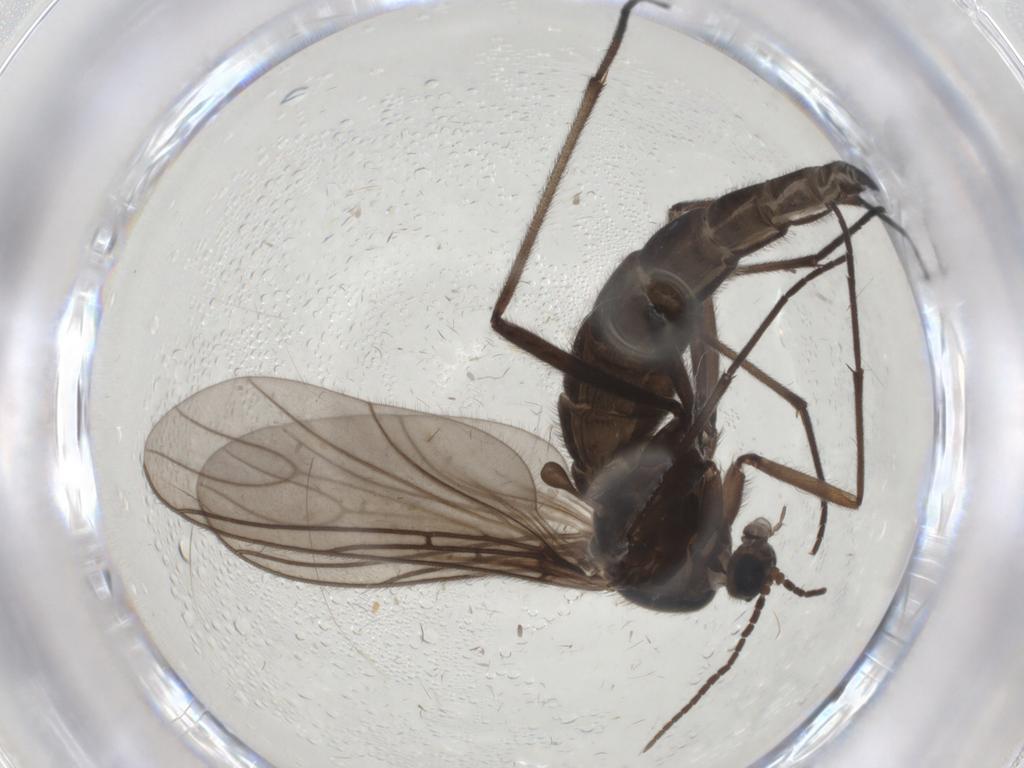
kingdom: Animalia
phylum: Arthropoda
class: Insecta
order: Diptera
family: Sciaridae
